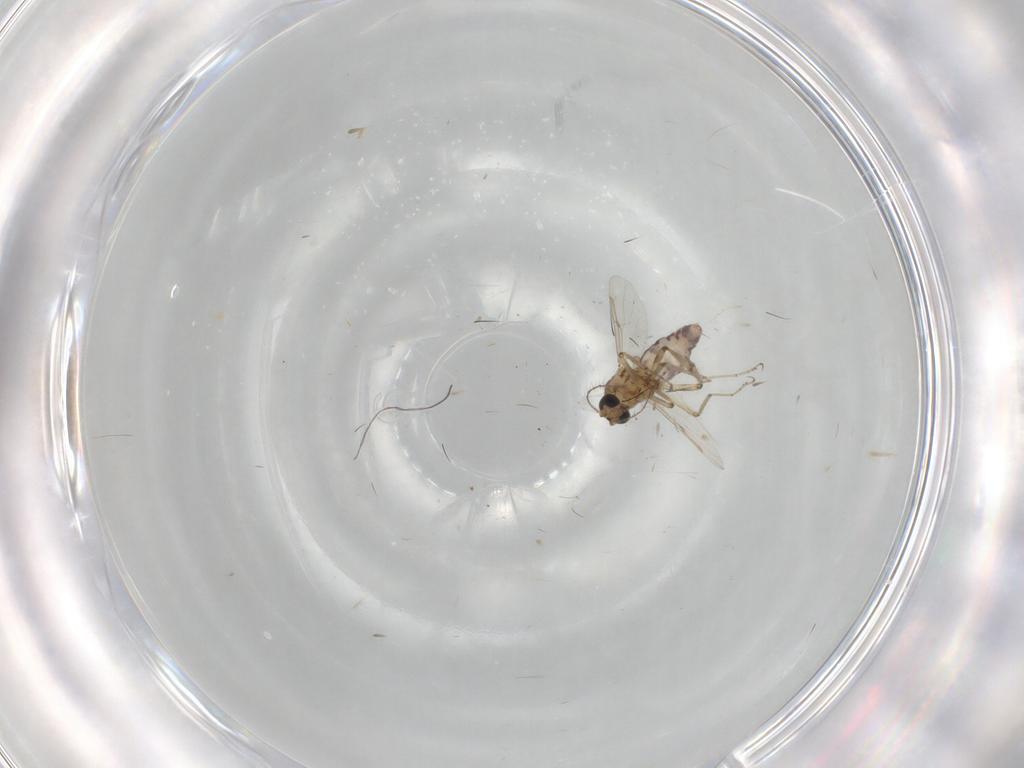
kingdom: Animalia
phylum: Arthropoda
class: Insecta
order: Diptera
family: Ceratopogonidae
